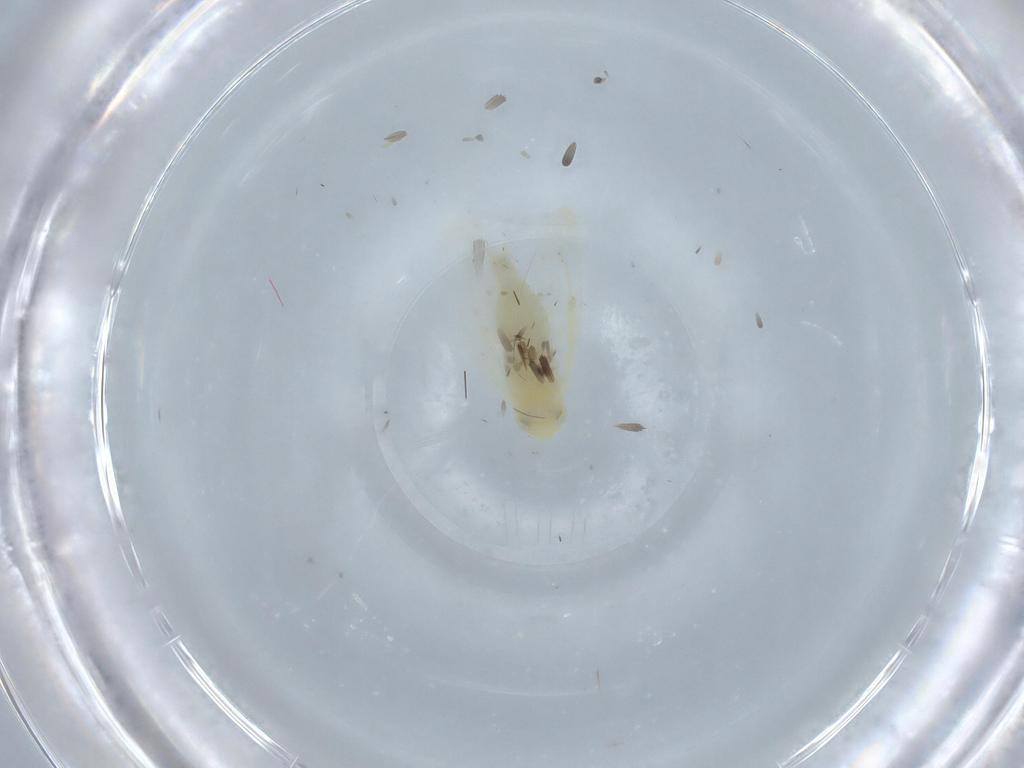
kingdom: Animalia
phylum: Arthropoda
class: Insecta
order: Hemiptera
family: Cicadellidae
